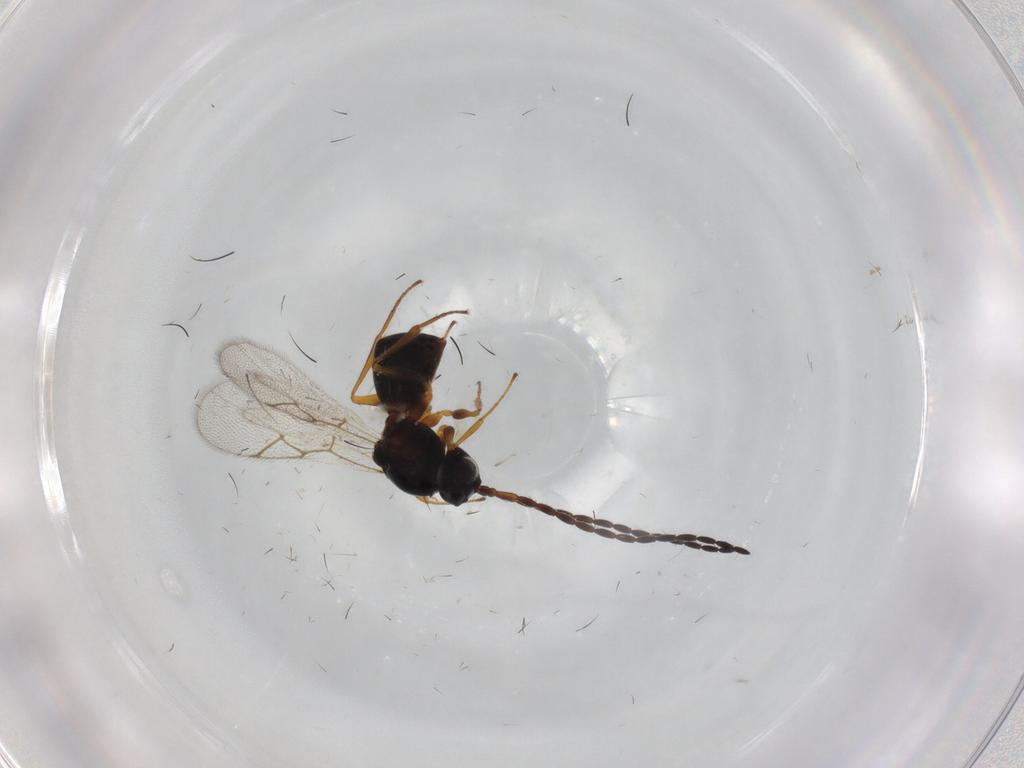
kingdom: Animalia
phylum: Arthropoda
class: Insecta
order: Hymenoptera
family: Figitidae
